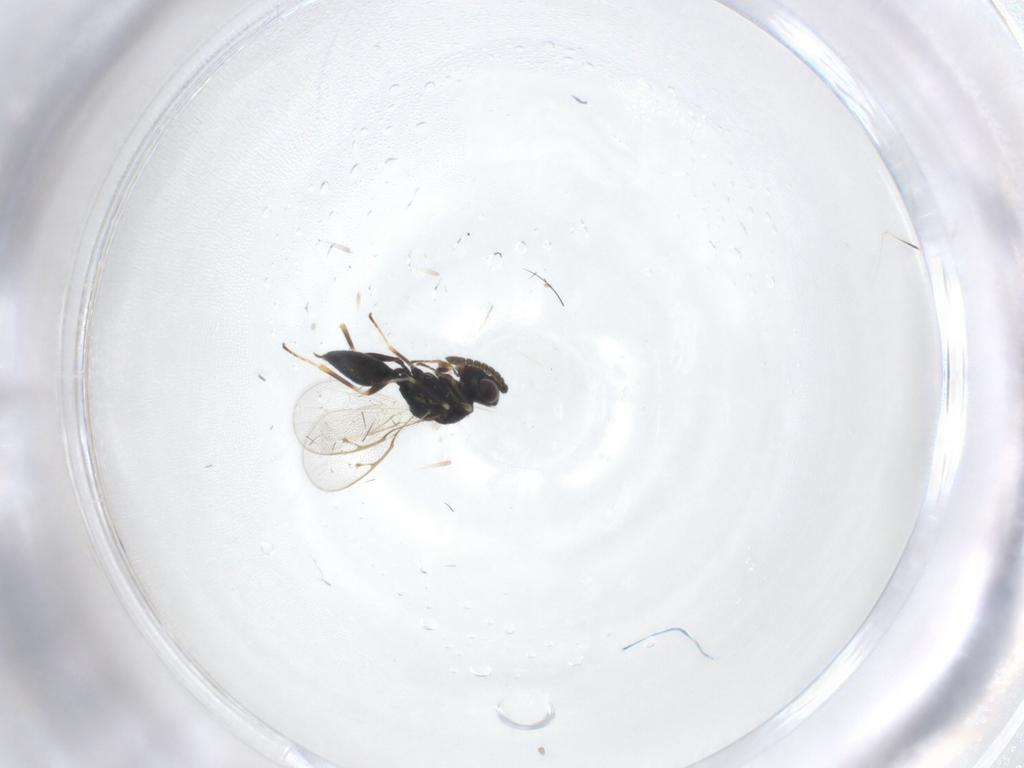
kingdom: Animalia
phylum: Arthropoda
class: Insecta
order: Hymenoptera
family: Pteromalidae
